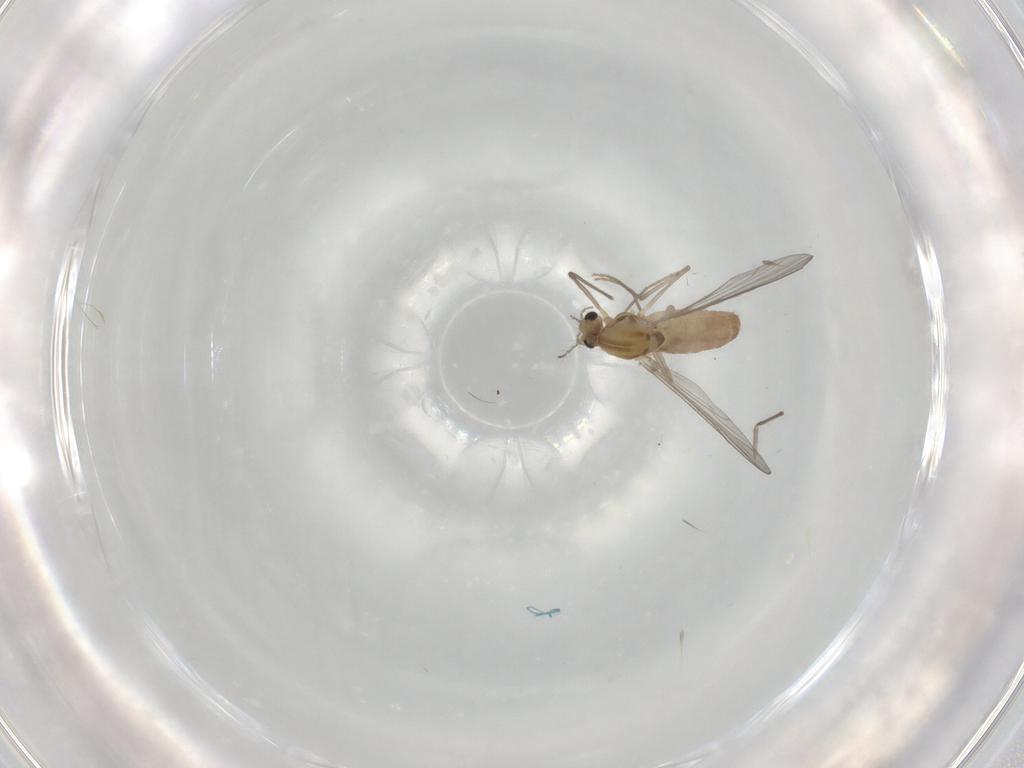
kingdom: Animalia
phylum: Arthropoda
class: Insecta
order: Diptera
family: Chironomidae
